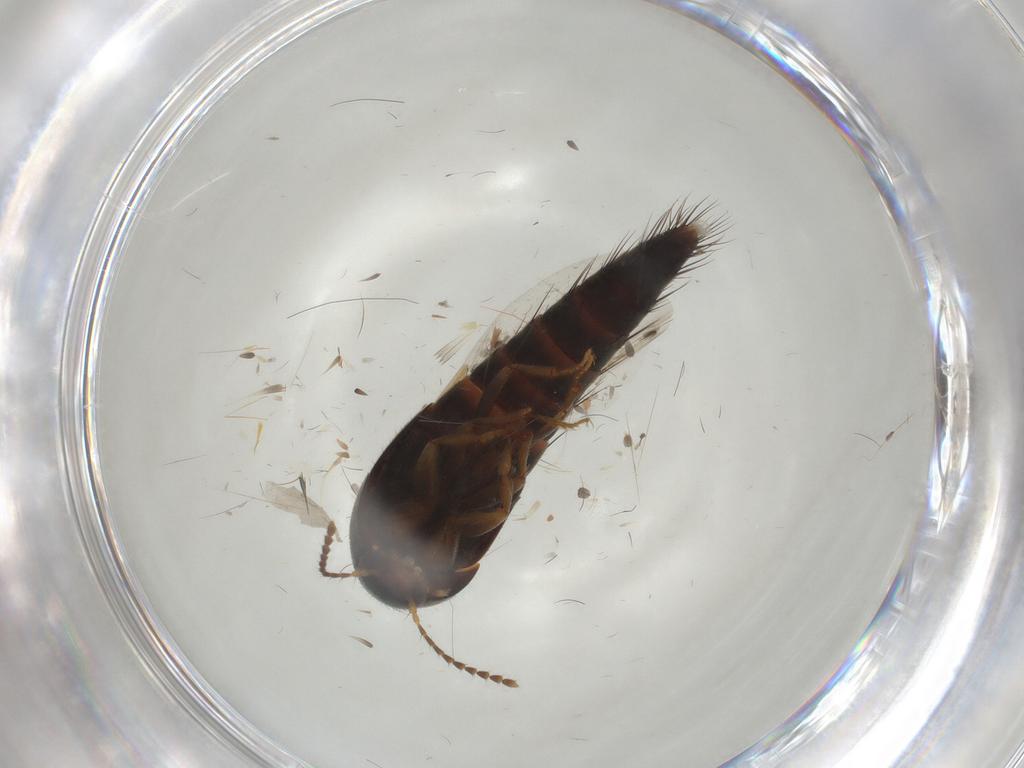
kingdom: Animalia
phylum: Arthropoda
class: Insecta
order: Coleoptera
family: Staphylinidae
